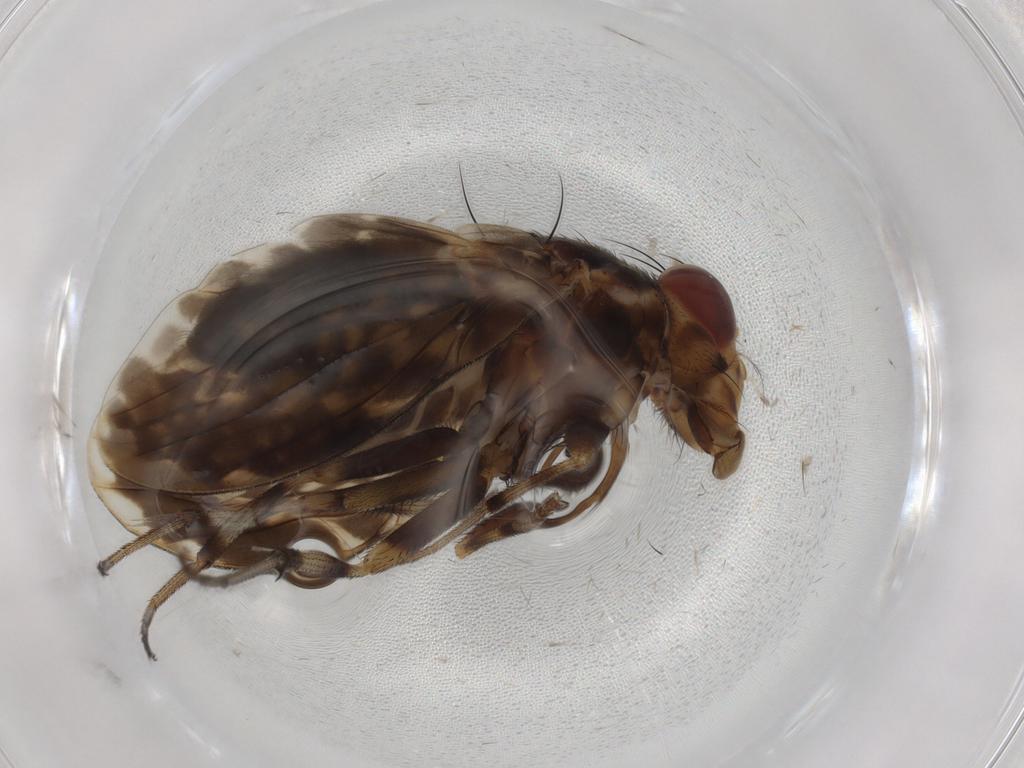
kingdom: Animalia
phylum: Arthropoda
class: Insecta
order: Diptera
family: Ceratopogonidae
